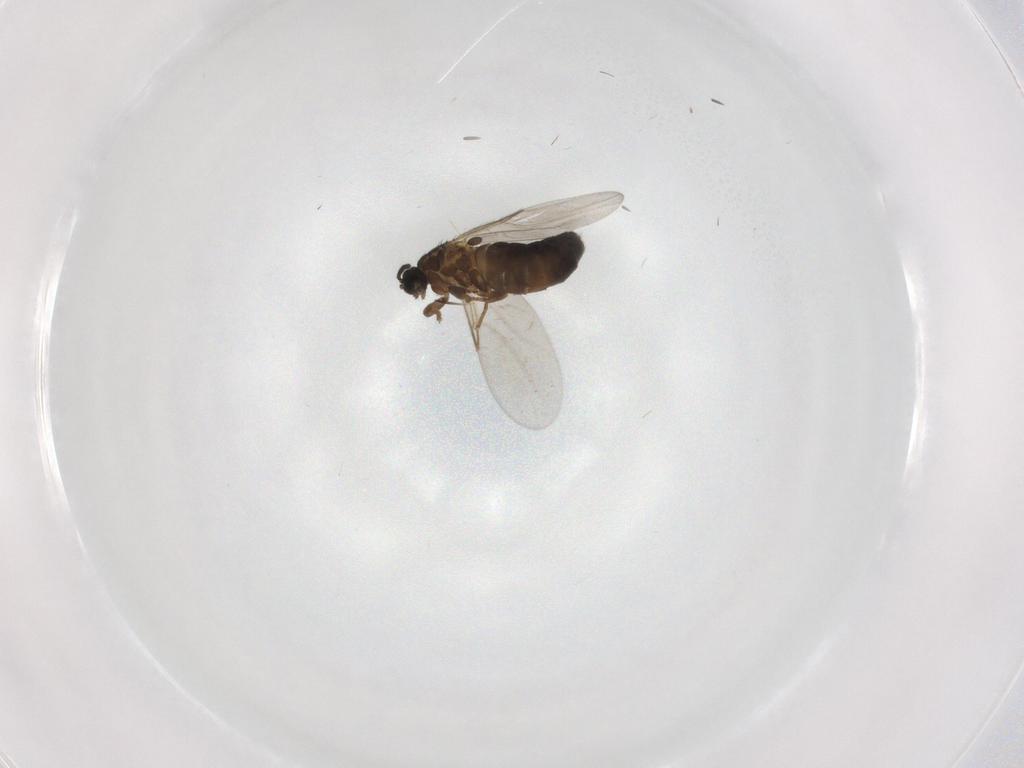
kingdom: Animalia
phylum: Arthropoda
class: Insecta
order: Diptera
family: Scatopsidae
